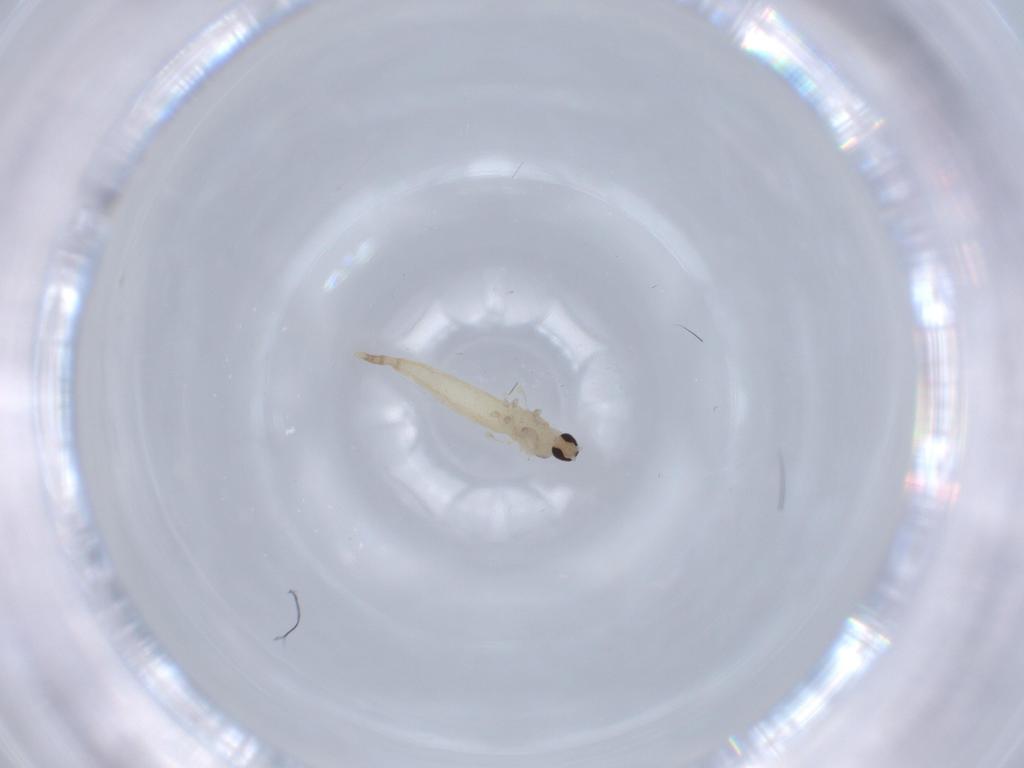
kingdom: Animalia
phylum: Arthropoda
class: Insecta
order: Diptera
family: Cecidomyiidae
